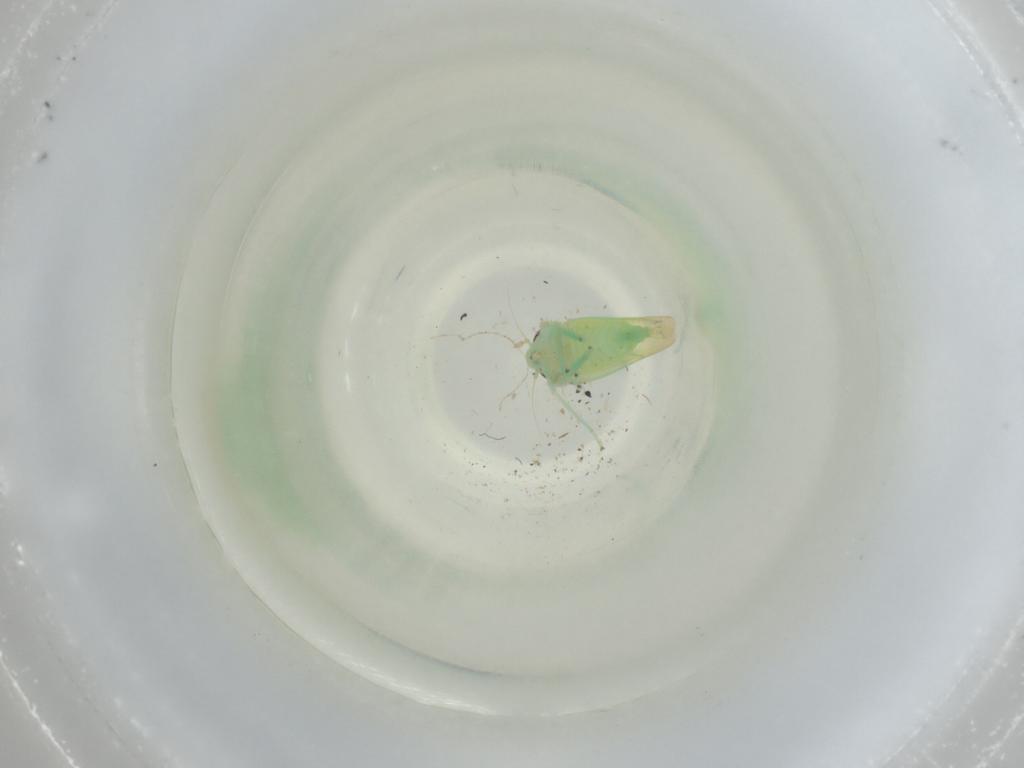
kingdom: Animalia
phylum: Arthropoda
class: Insecta
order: Hemiptera
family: Cicadellidae
